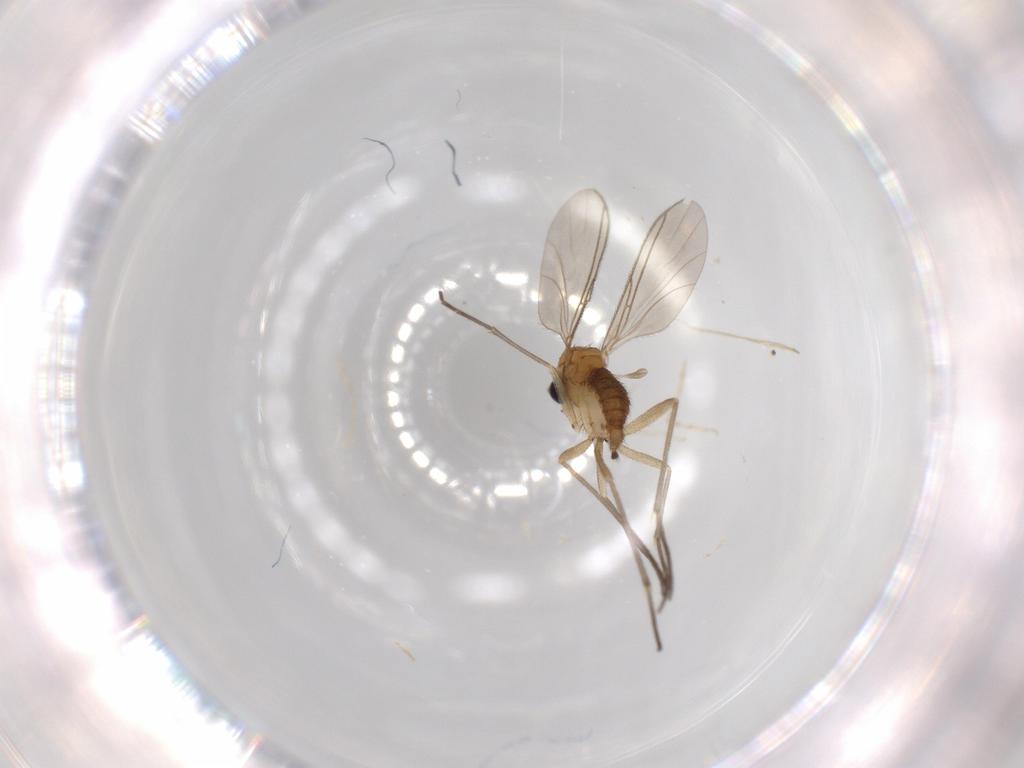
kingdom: Animalia
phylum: Arthropoda
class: Insecta
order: Diptera
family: Sciaridae
